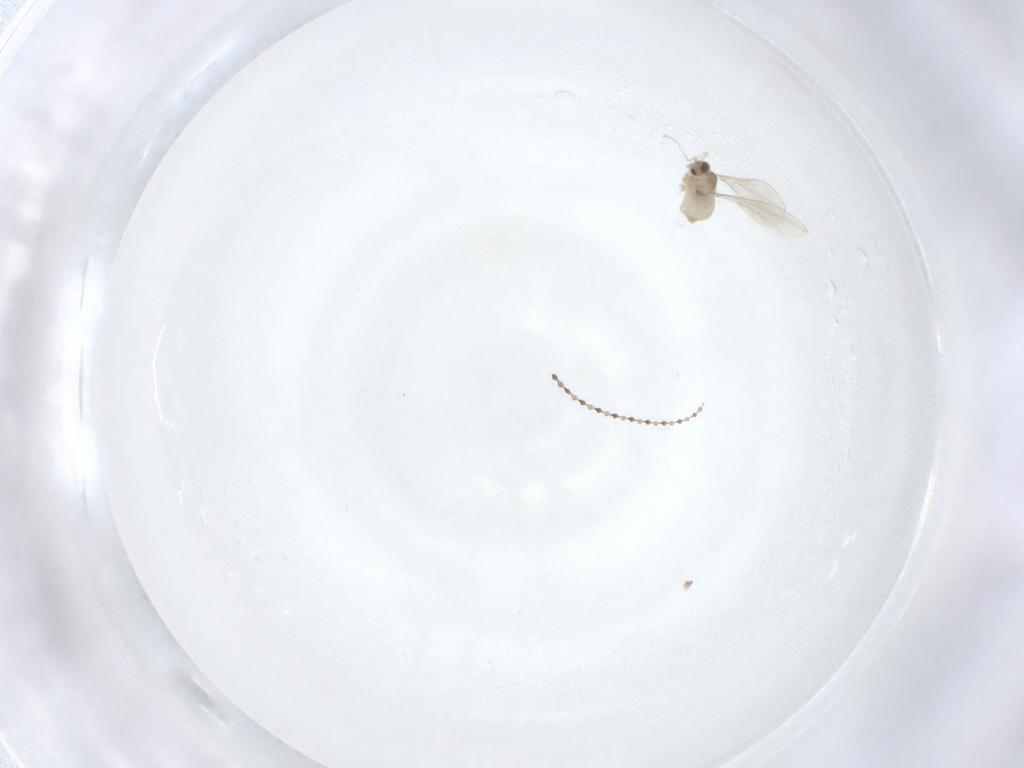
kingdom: Animalia
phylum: Arthropoda
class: Insecta
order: Diptera
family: Cecidomyiidae
